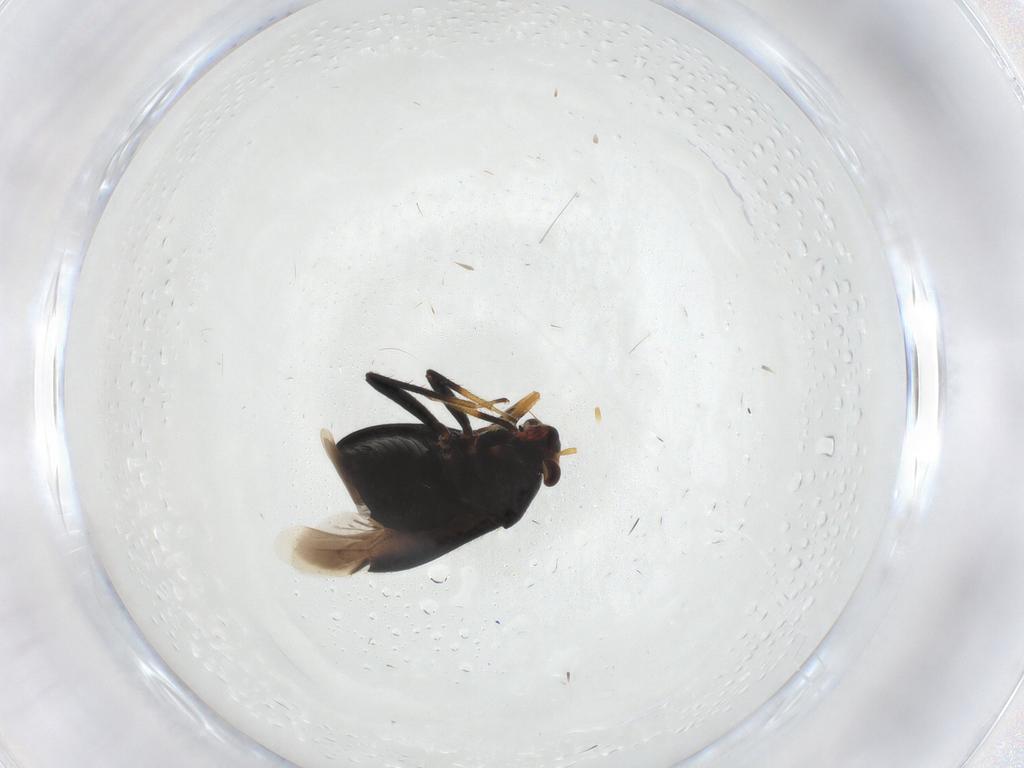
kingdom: Animalia
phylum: Arthropoda
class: Insecta
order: Hemiptera
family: Miridae
